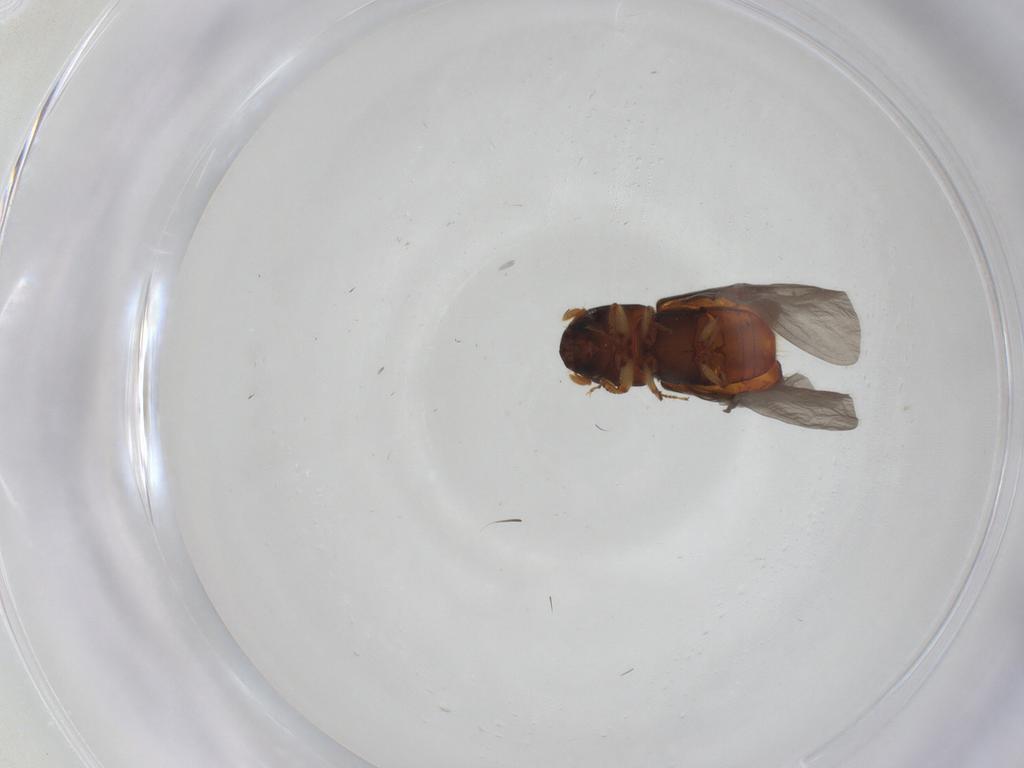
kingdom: Animalia
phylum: Arthropoda
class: Insecta
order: Coleoptera
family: Curculionidae
